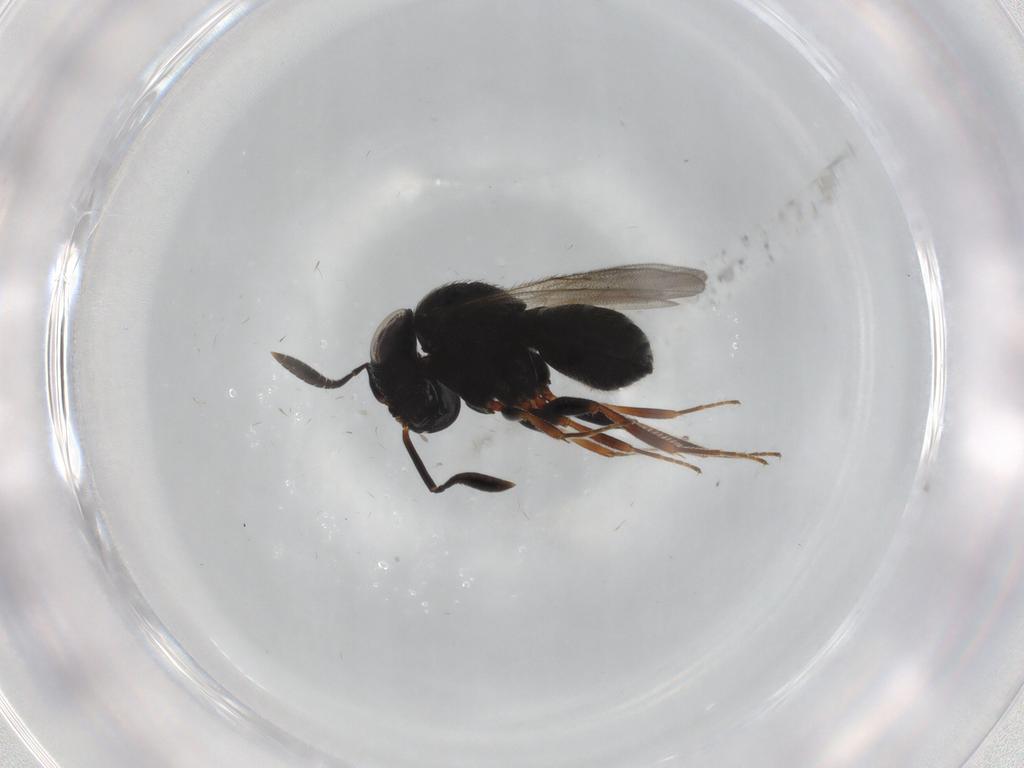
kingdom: Animalia
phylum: Arthropoda
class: Insecta
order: Hymenoptera
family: Scelionidae
